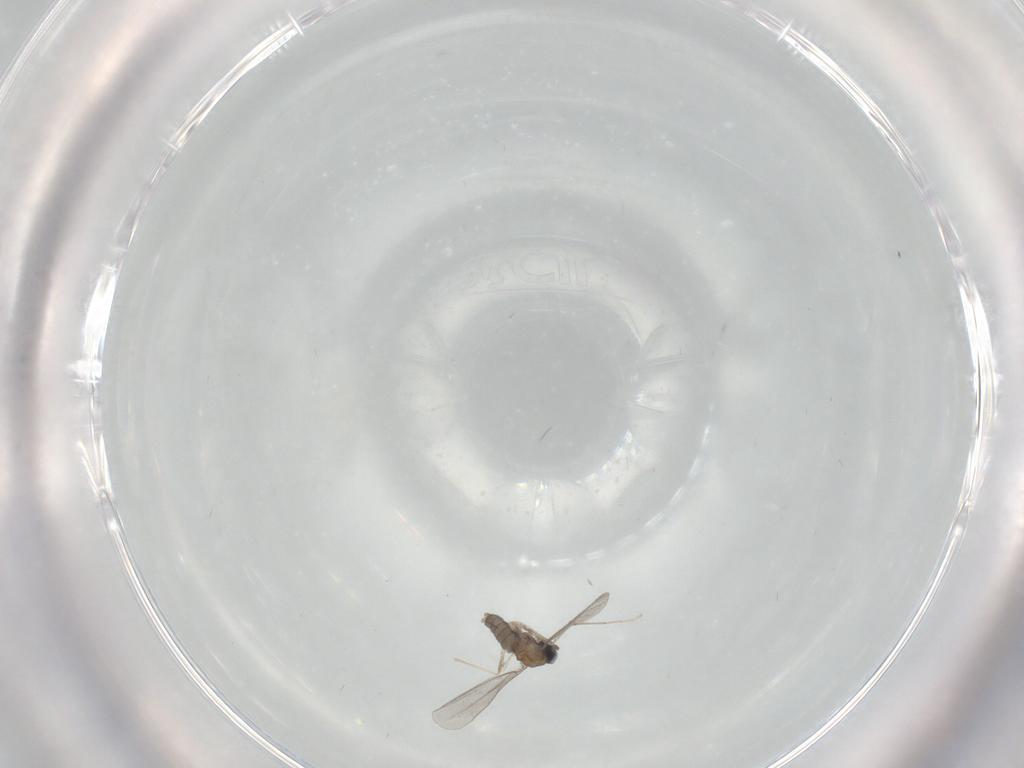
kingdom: Animalia
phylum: Arthropoda
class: Insecta
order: Diptera
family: Cecidomyiidae
